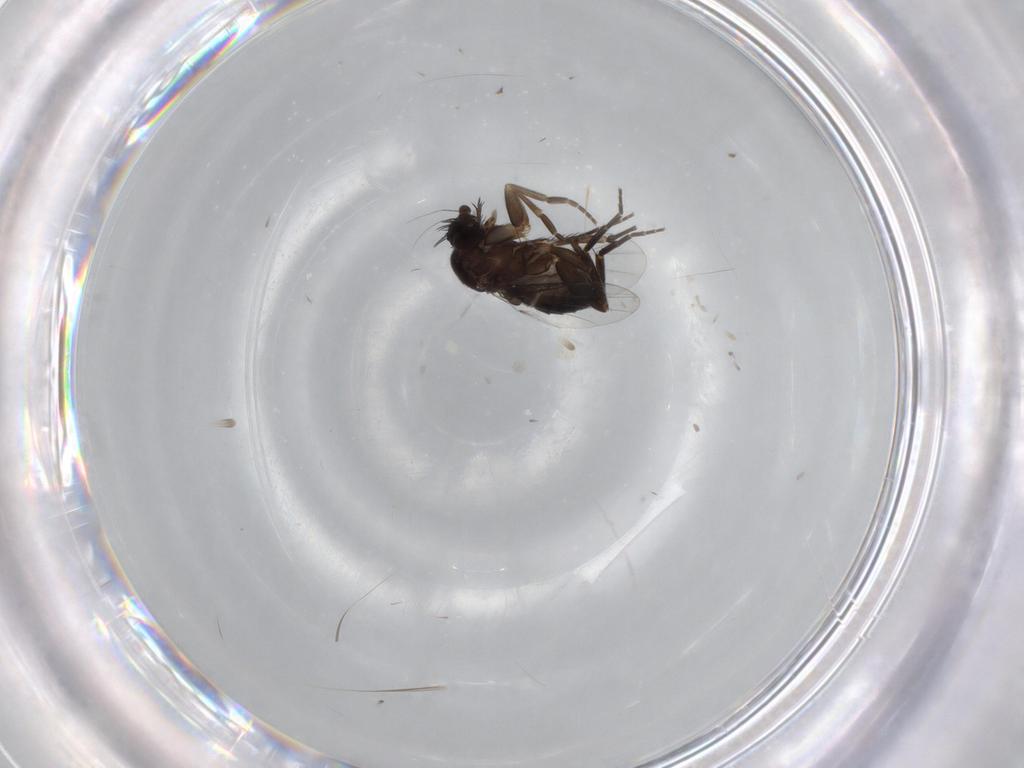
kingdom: Animalia
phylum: Arthropoda
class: Insecta
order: Diptera
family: Phoridae
